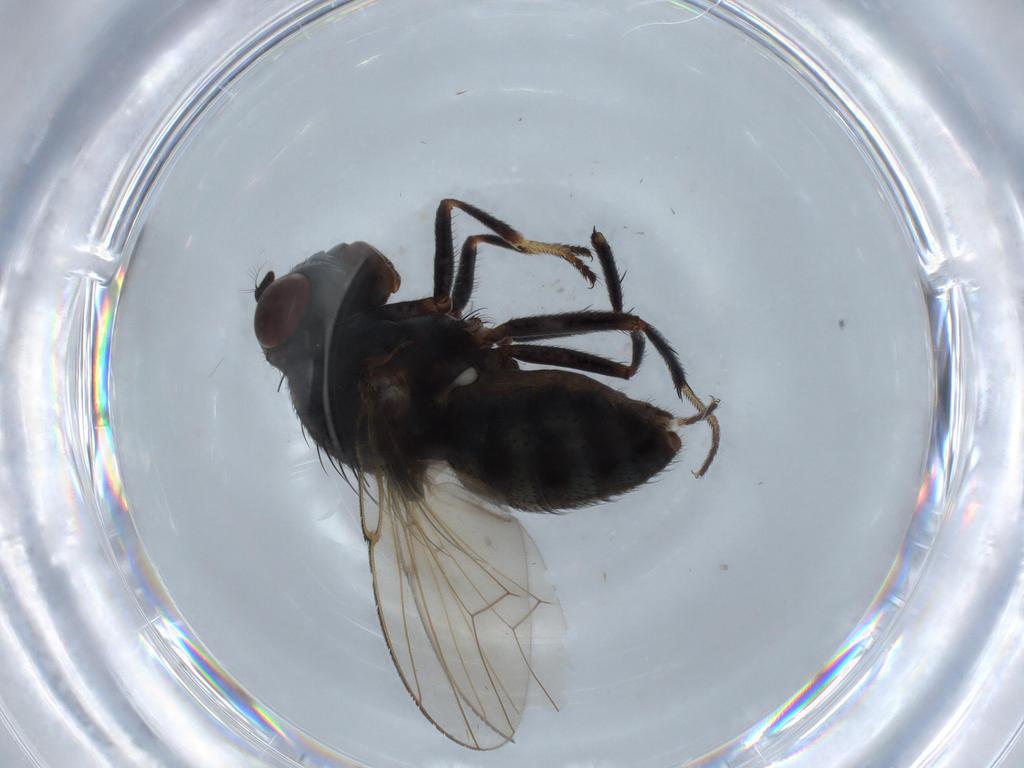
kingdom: Animalia
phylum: Arthropoda
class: Insecta
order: Diptera
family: Ephydridae
